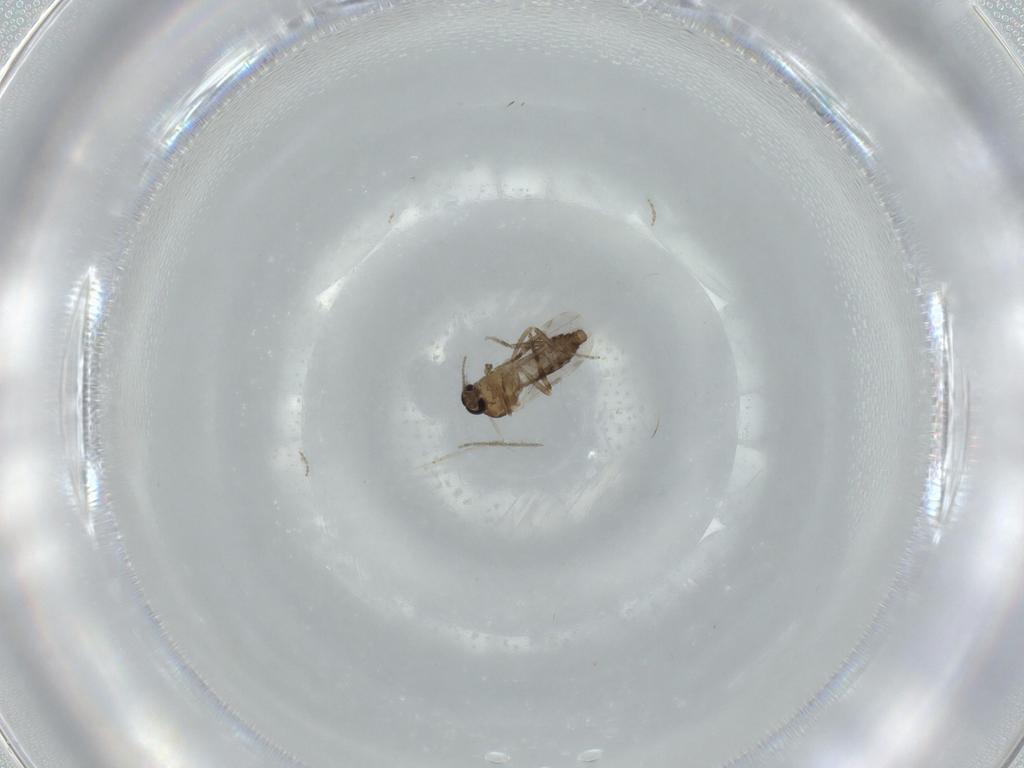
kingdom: Animalia
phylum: Arthropoda
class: Insecta
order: Diptera
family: Ceratopogonidae
